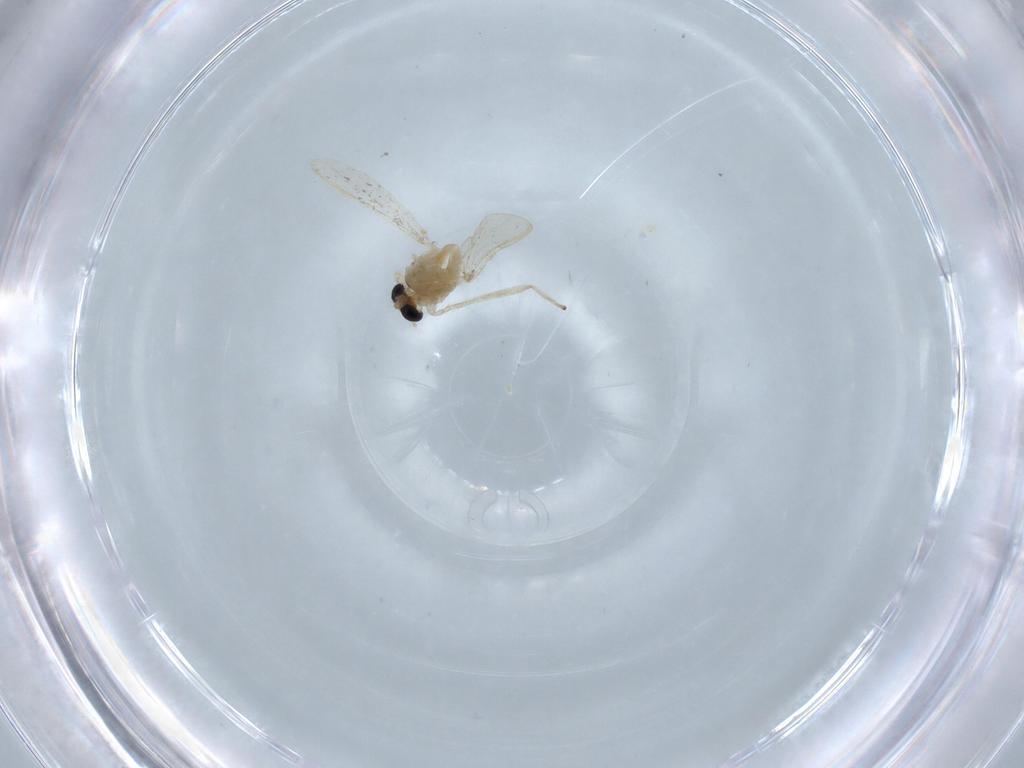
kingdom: Animalia
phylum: Arthropoda
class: Insecta
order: Diptera
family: Chironomidae
